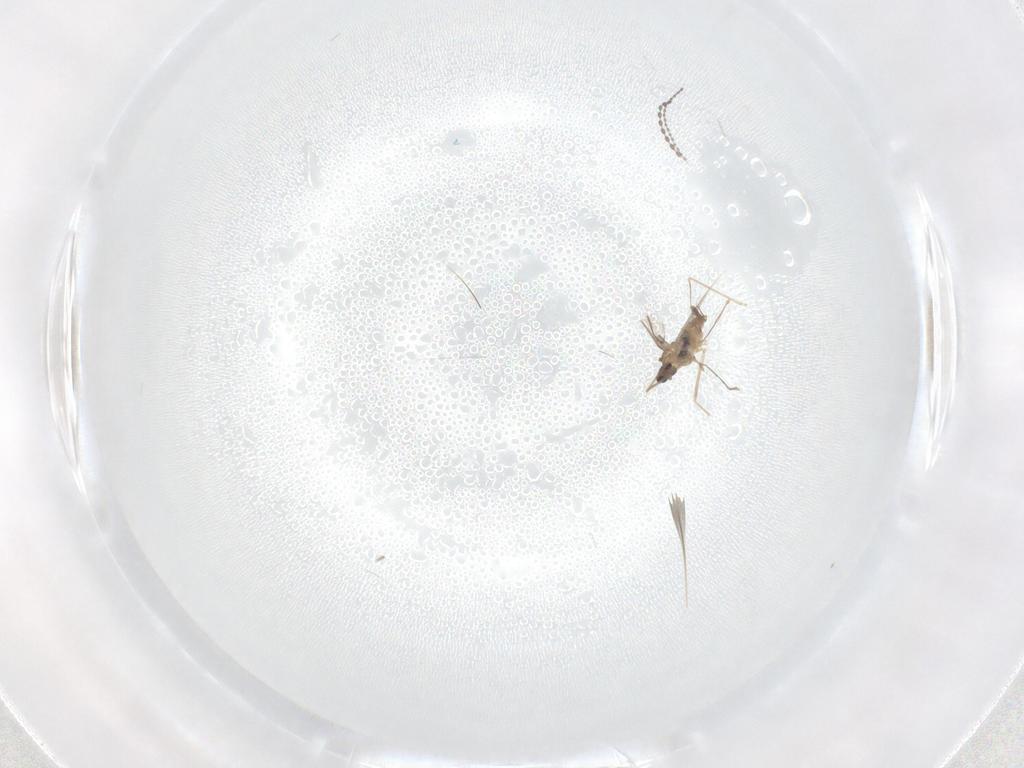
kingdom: Animalia
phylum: Arthropoda
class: Insecta
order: Diptera
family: Cecidomyiidae
